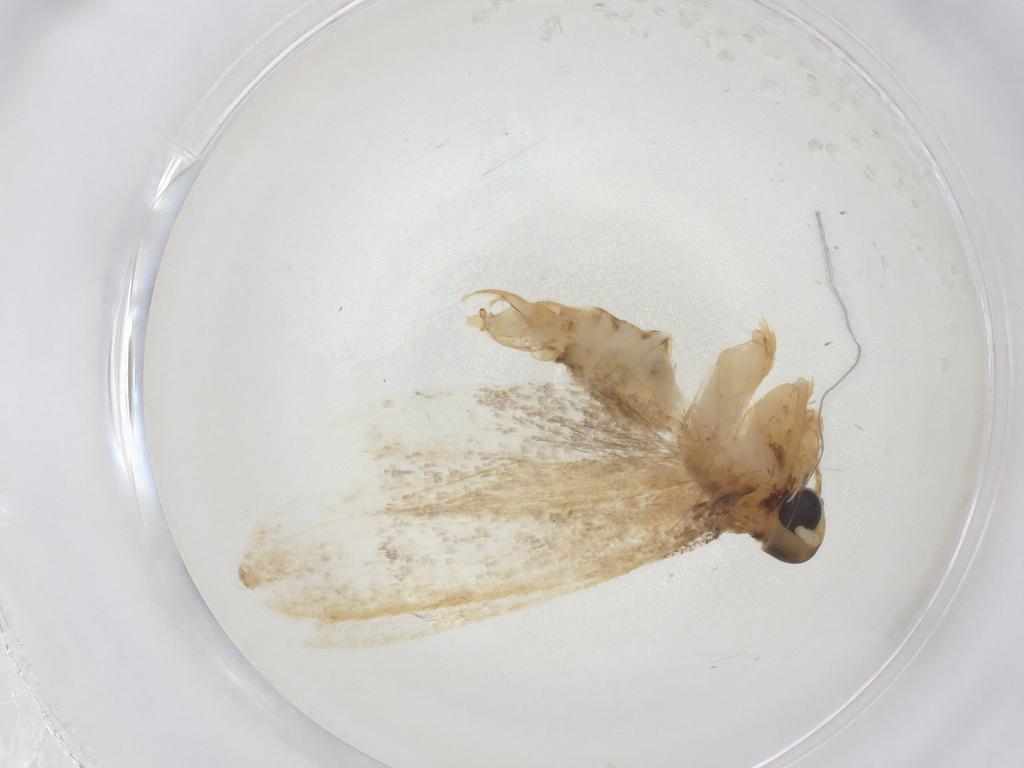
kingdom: Animalia
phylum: Arthropoda
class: Insecta
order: Lepidoptera
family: Lecithoceridae
